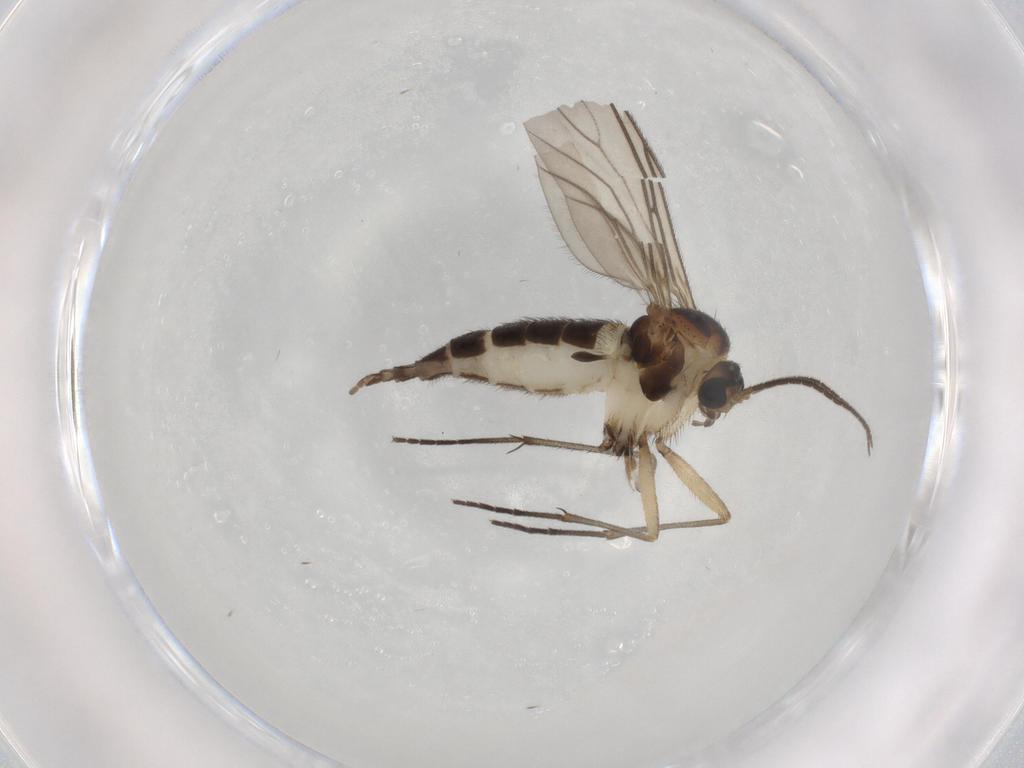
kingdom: Animalia
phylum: Arthropoda
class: Insecta
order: Diptera
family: Sciaridae
